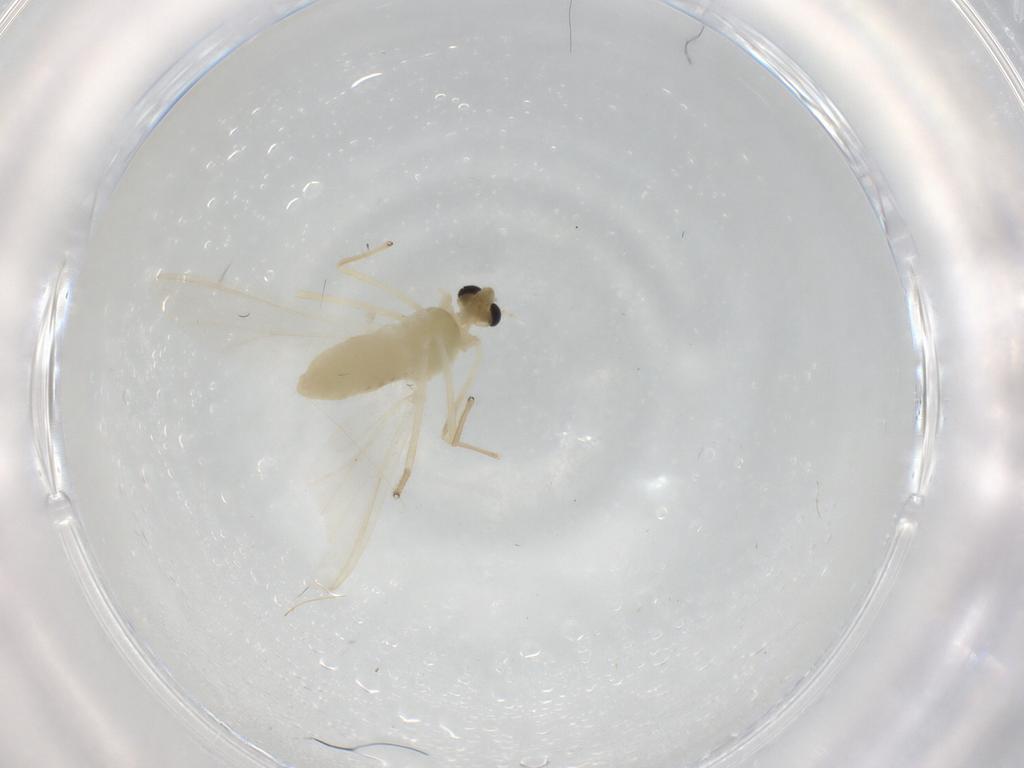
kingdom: Animalia
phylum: Arthropoda
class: Insecta
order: Diptera
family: Chironomidae
